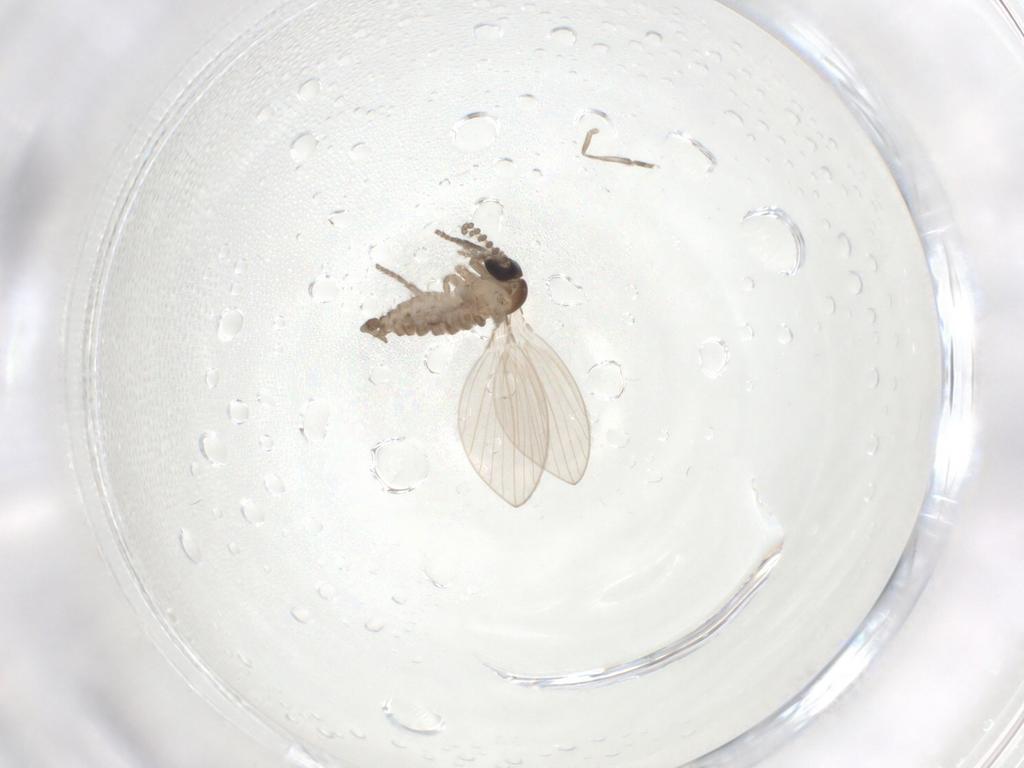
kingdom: Animalia
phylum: Arthropoda
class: Insecta
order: Diptera
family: Psychodidae
